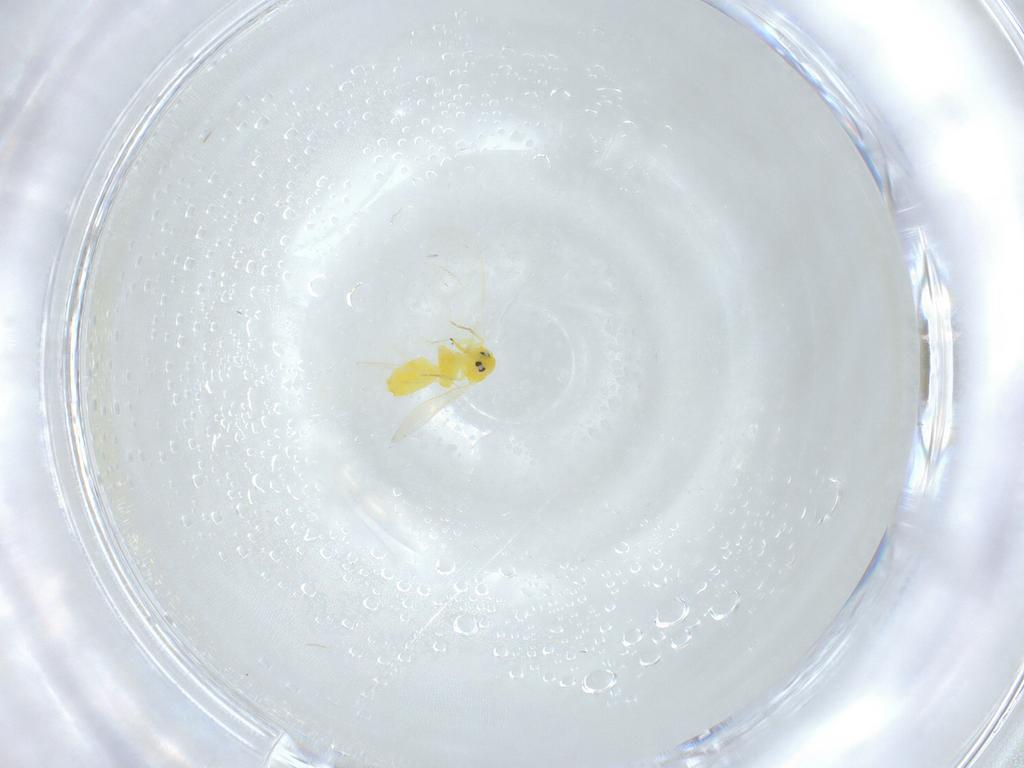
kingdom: Animalia
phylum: Arthropoda
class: Insecta
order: Hemiptera
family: Aleyrodidae
